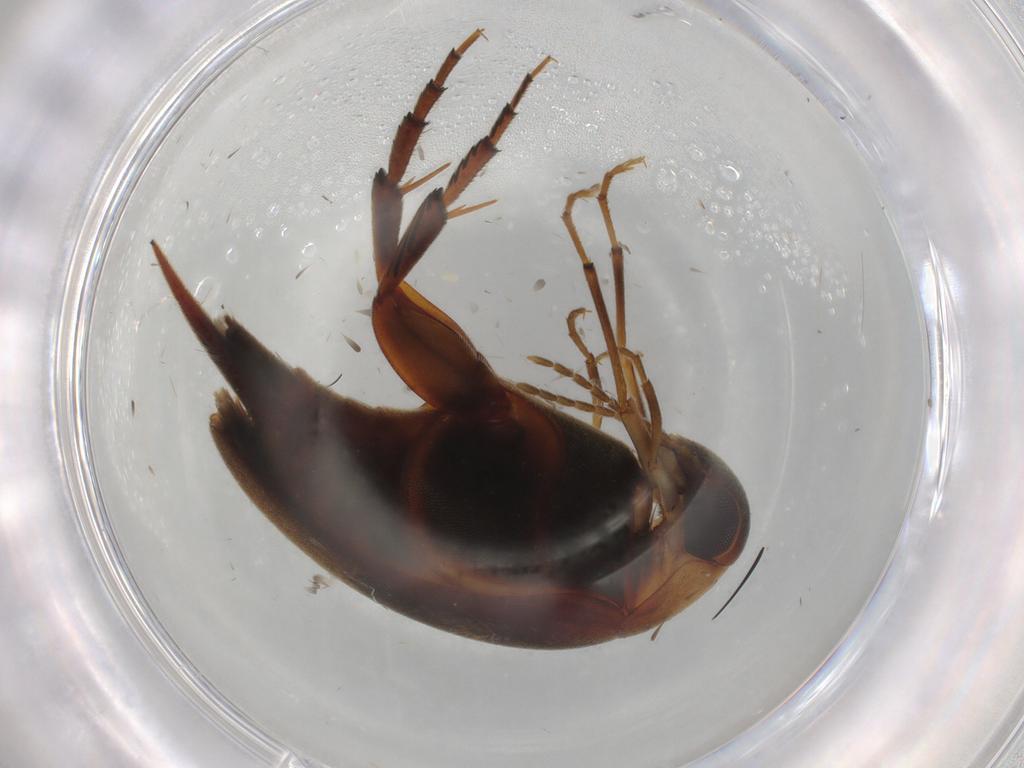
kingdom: Animalia
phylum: Arthropoda
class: Insecta
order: Coleoptera
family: Mordellidae
